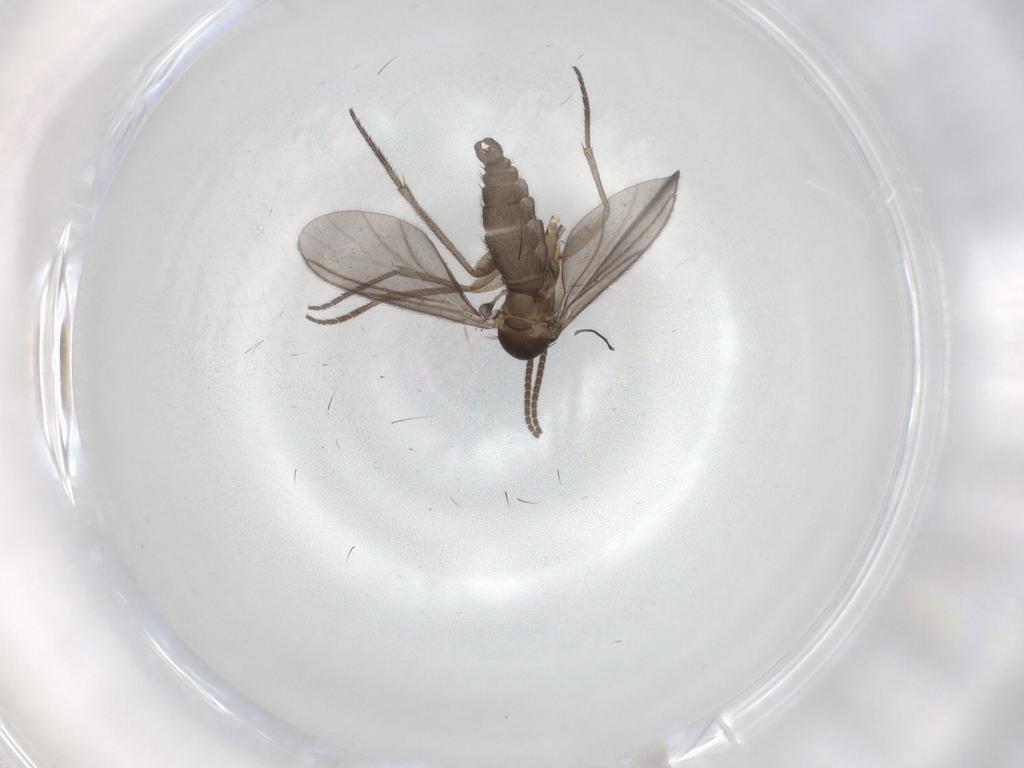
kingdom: Animalia
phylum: Arthropoda
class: Insecta
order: Diptera
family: Sciaridae
